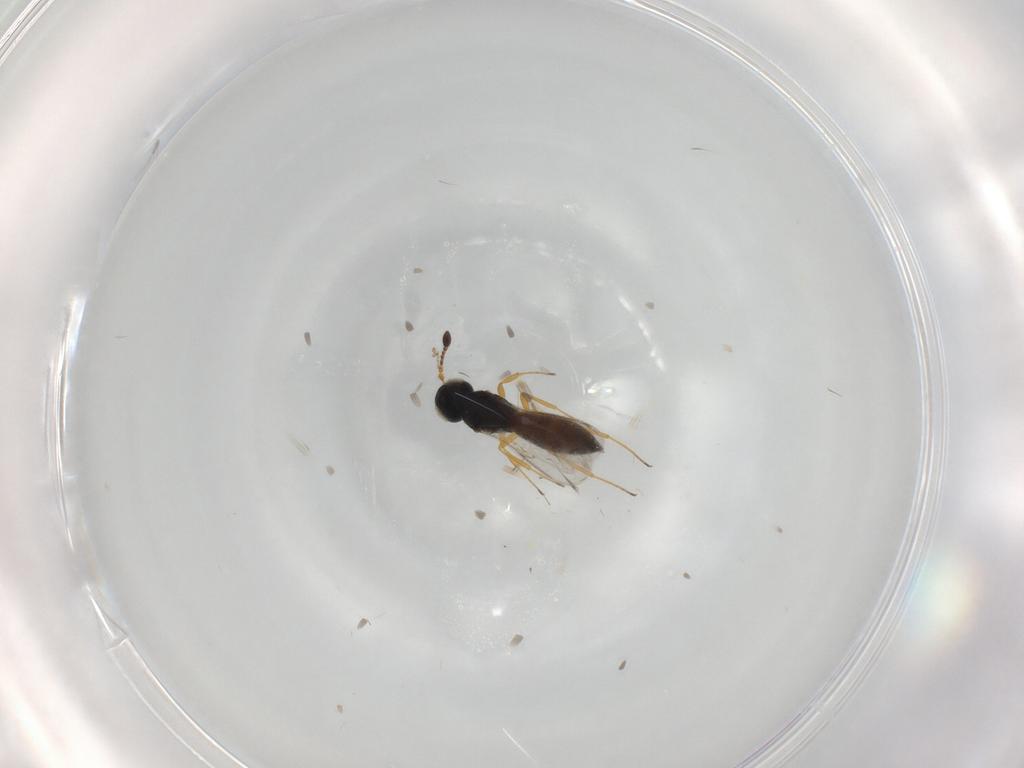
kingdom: Animalia
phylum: Arthropoda
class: Insecta
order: Hymenoptera
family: Scelionidae
